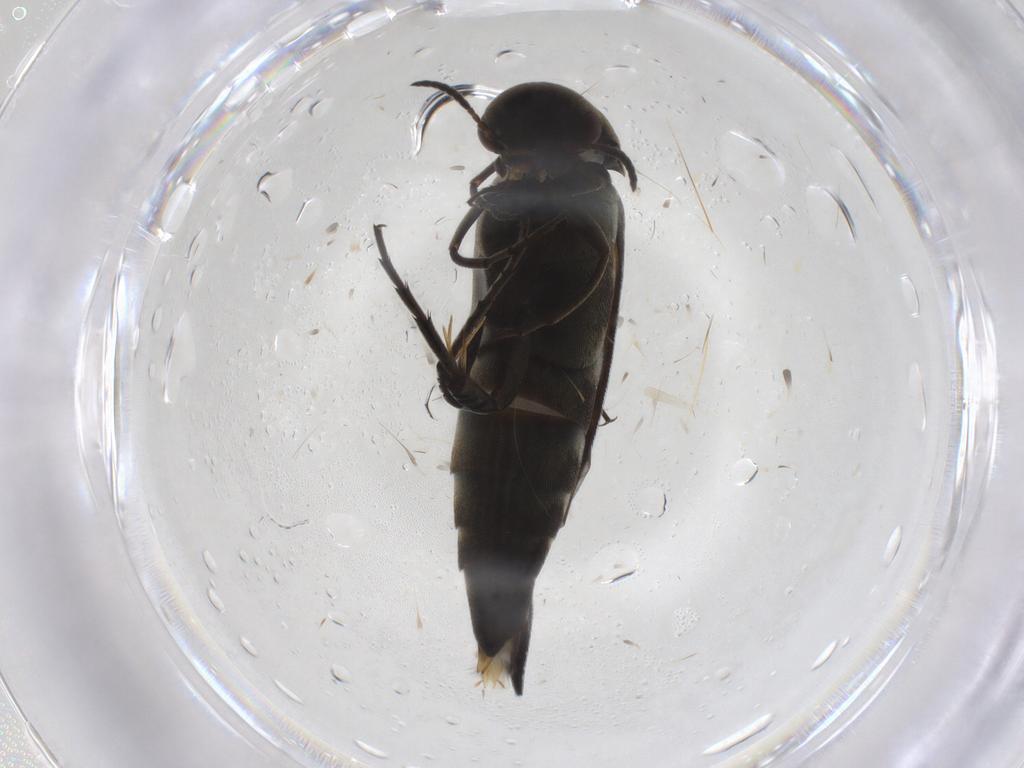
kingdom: Animalia
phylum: Arthropoda
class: Insecta
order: Coleoptera
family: Mordellidae
